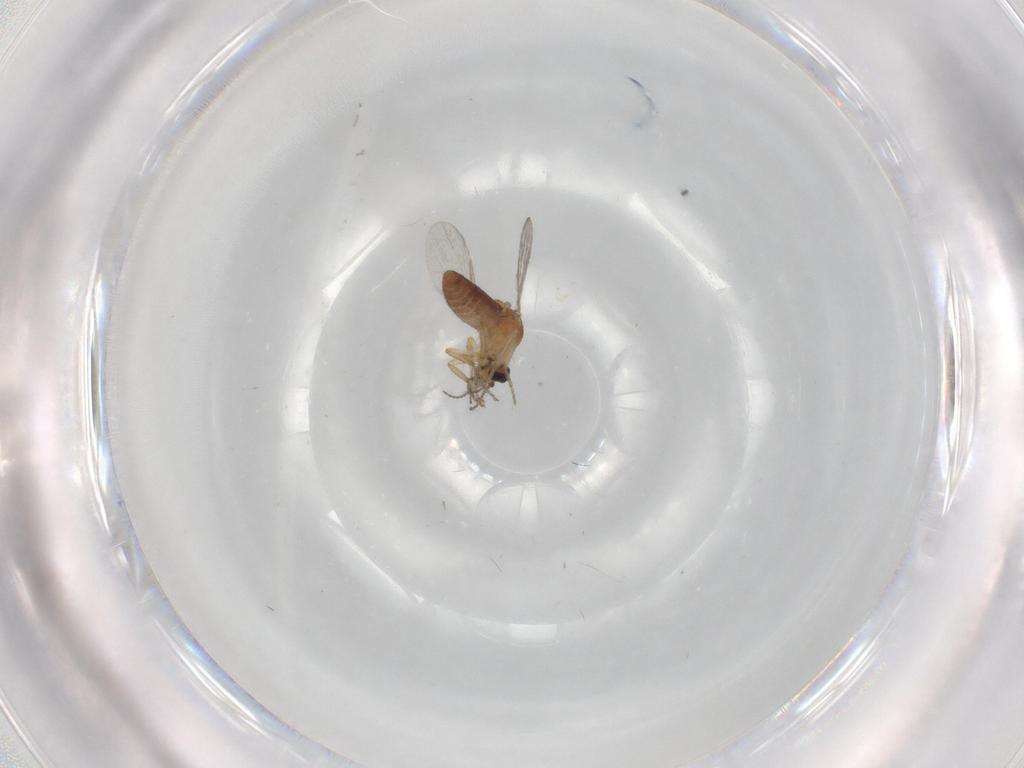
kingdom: Animalia
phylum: Arthropoda
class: Insecta
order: Diptera
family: Ceratopogonidae
